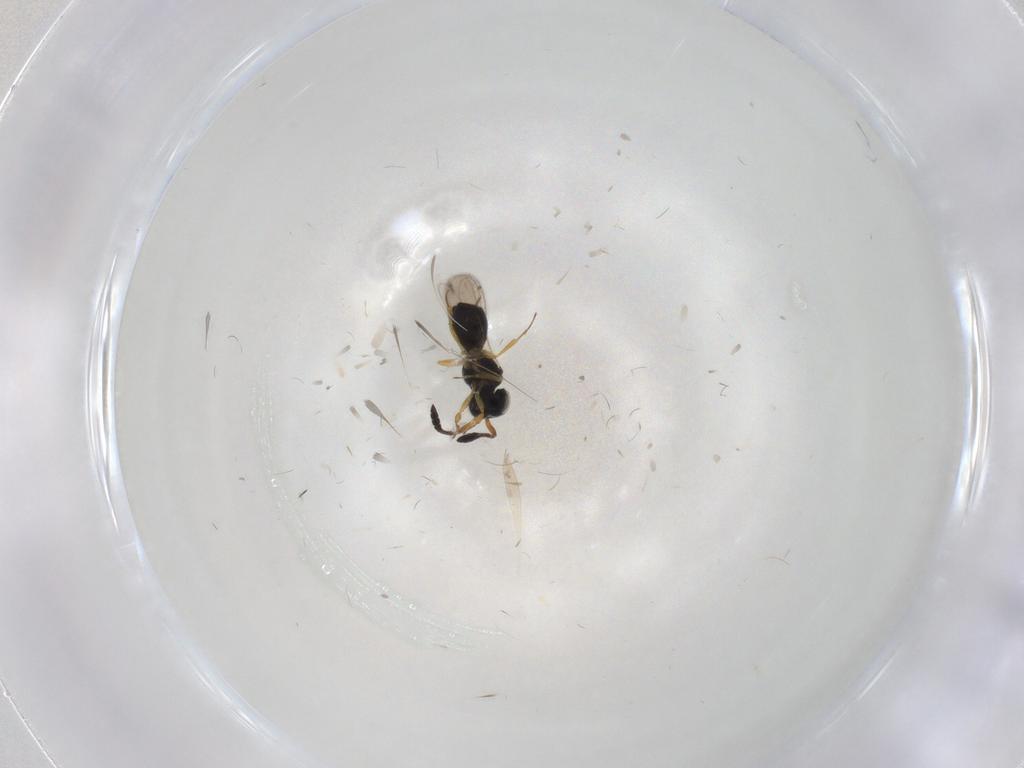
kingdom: Animalia
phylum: Arthropoda
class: Insecta
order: Hymenoptera
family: Scelionidae
